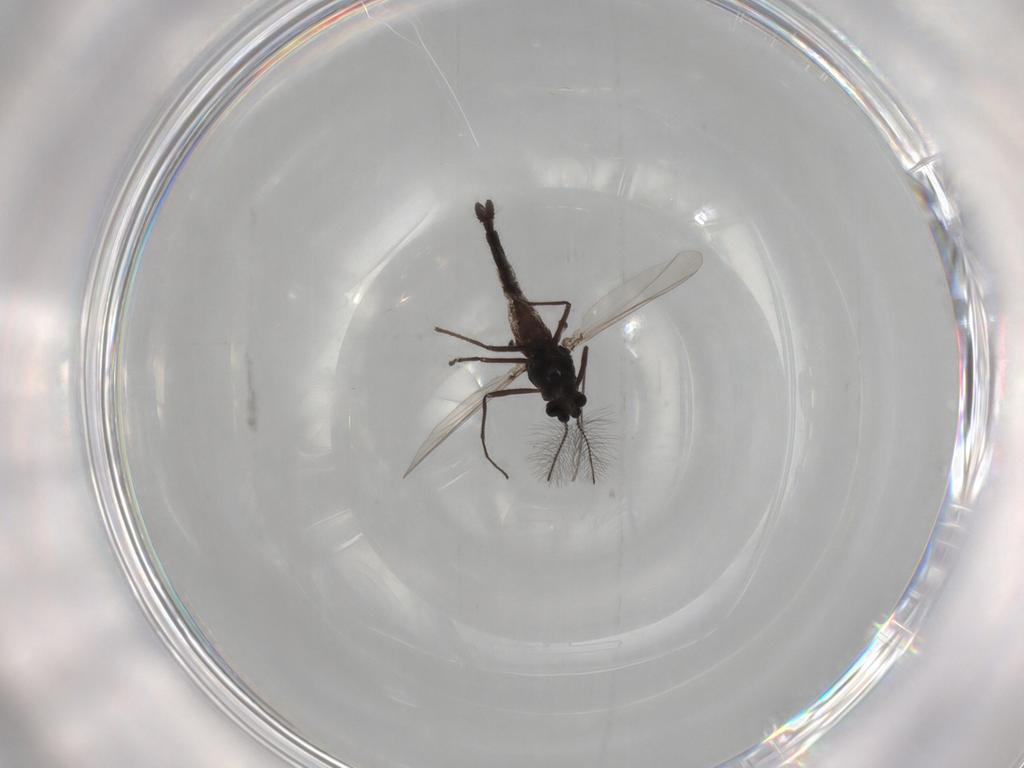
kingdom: Animalia
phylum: Arthropoda
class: Insecta
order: Diptera
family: Chironomidae
